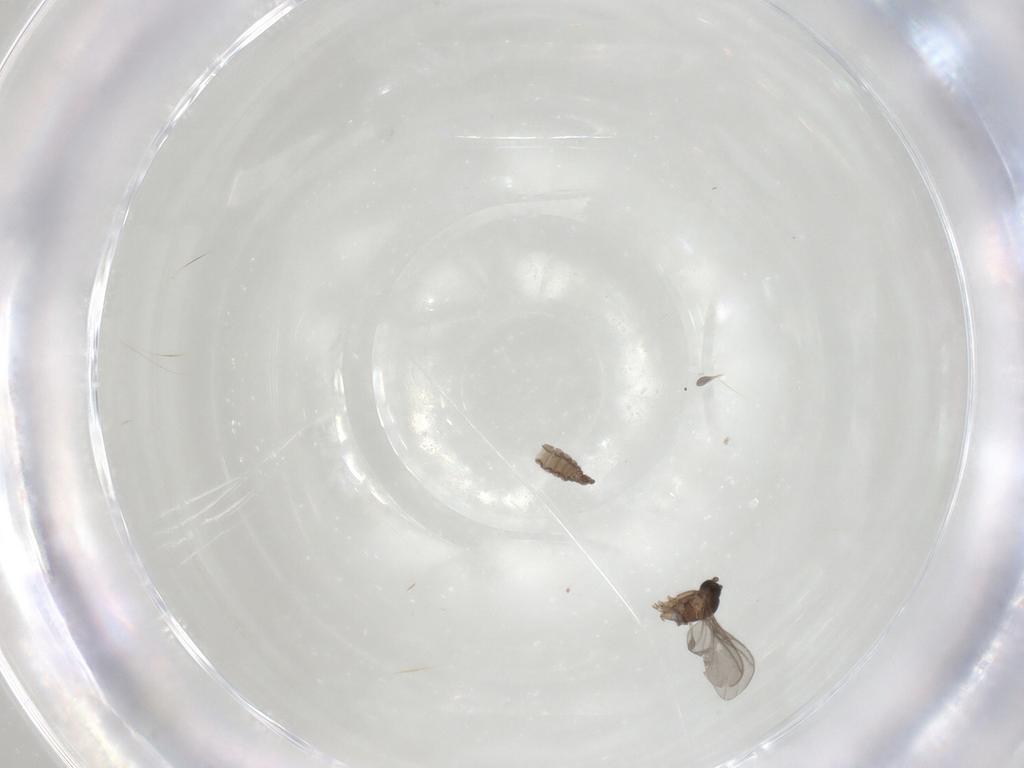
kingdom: Animalia
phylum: Arthropoda
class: Insecta
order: Diptera
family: Sciaridae
